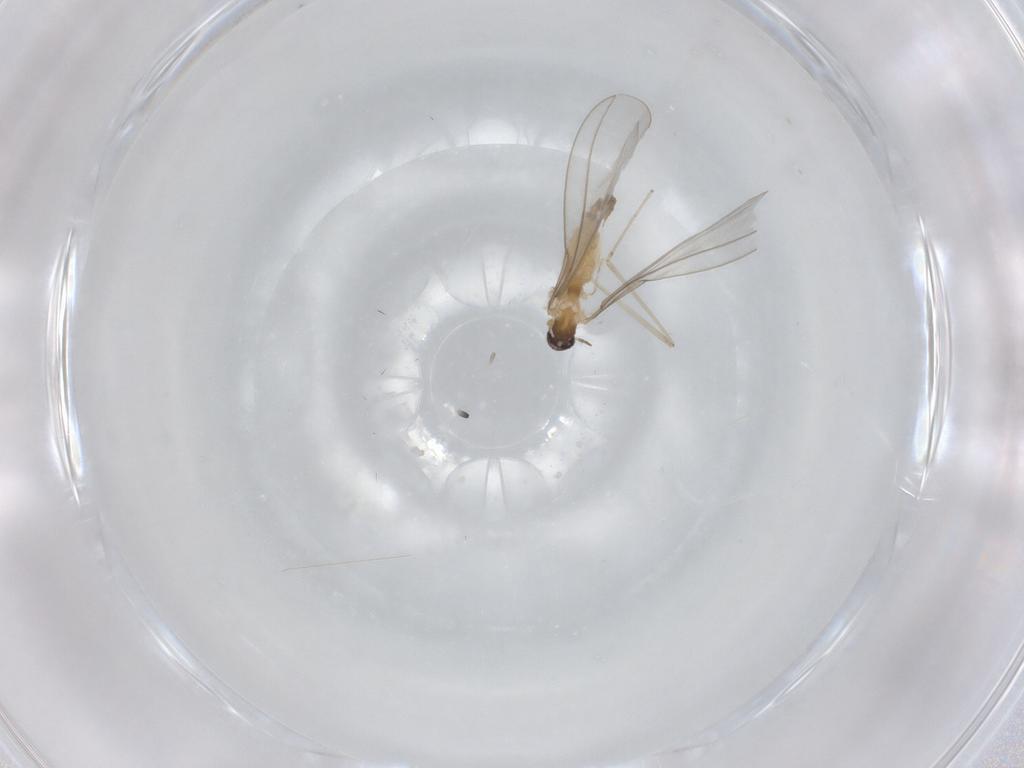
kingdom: Animalia
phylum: Arthropoda
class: Insecta
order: Diptera
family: Cecidomyiidae
